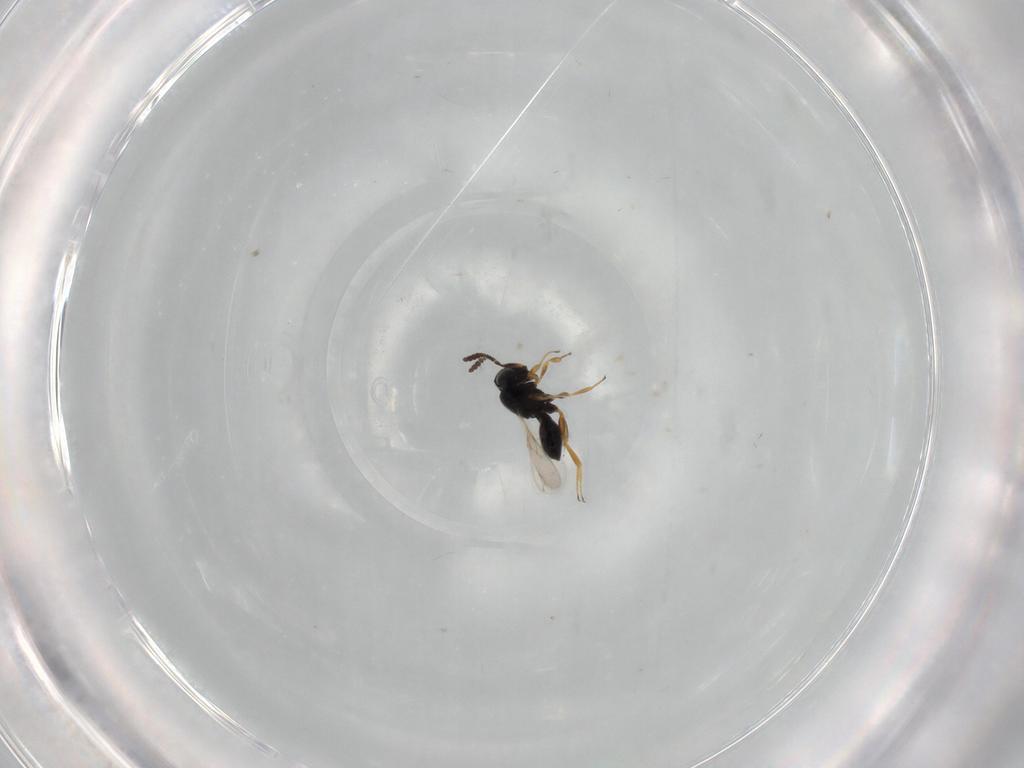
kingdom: Animalia
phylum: Arthropoda
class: Insecta
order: Hymenoptera
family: Scelionidae
